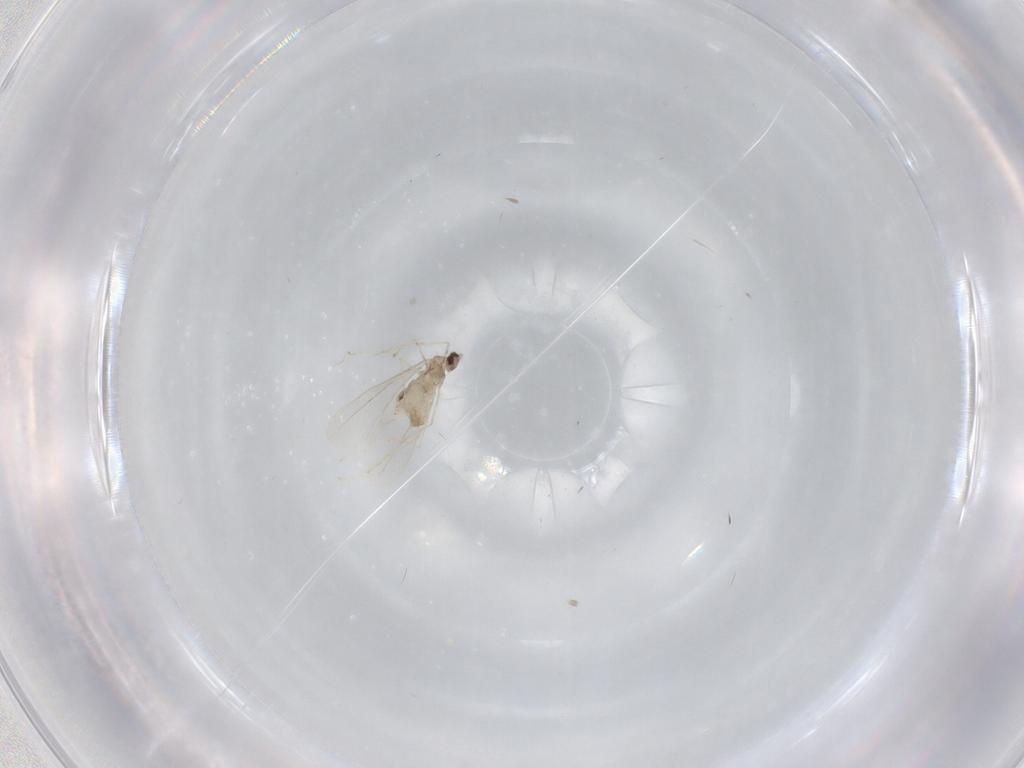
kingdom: Animalia
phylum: Arthropoda
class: Insecta
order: Diptera
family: Cecidomyiidae
